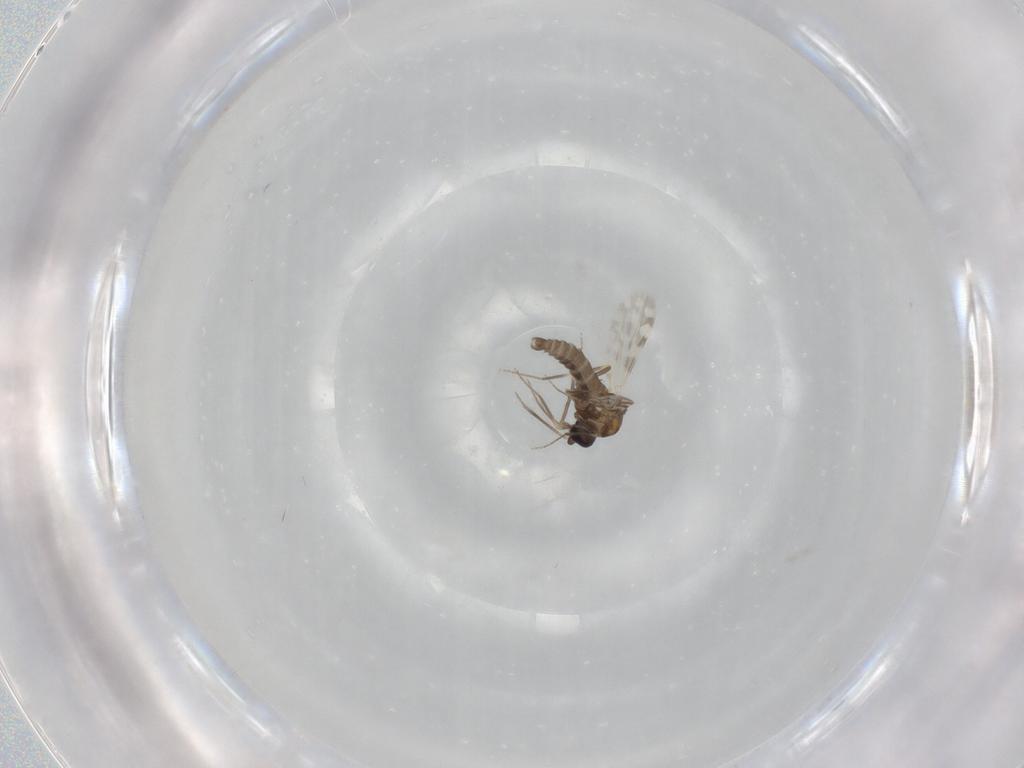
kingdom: Animalia
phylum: Arthropoda
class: Insecta
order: Diptera
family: Ceratopogonidae
